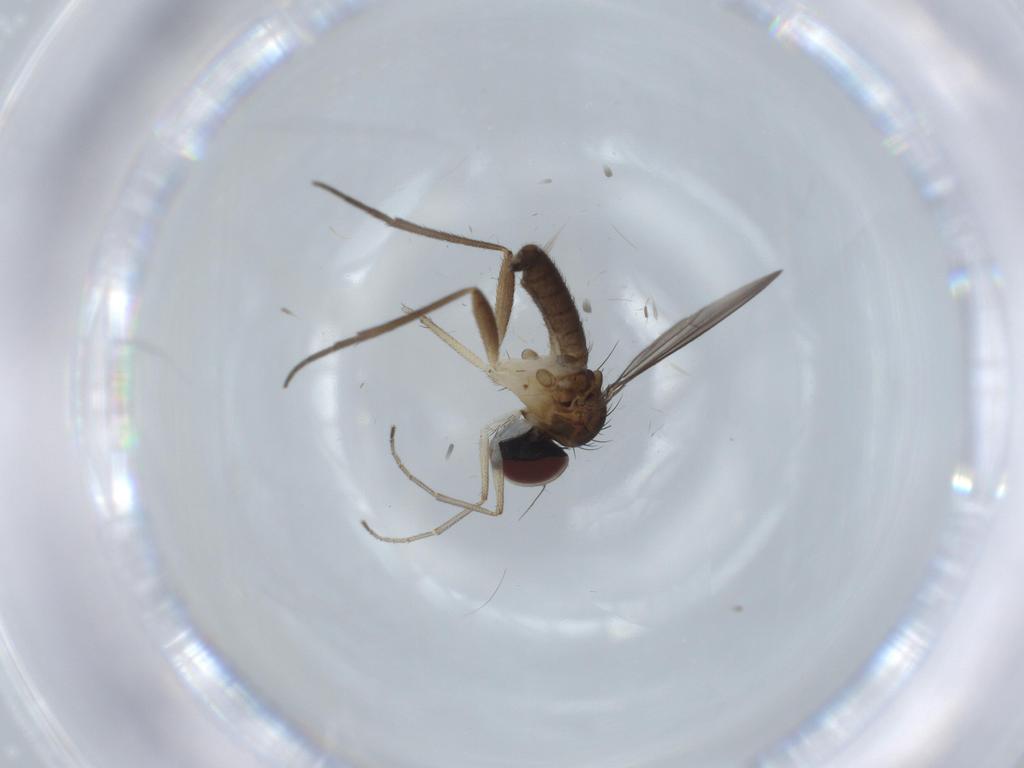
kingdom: Animalia
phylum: Arthropoda
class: Insecta
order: Diptera
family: Dolichopodidae
